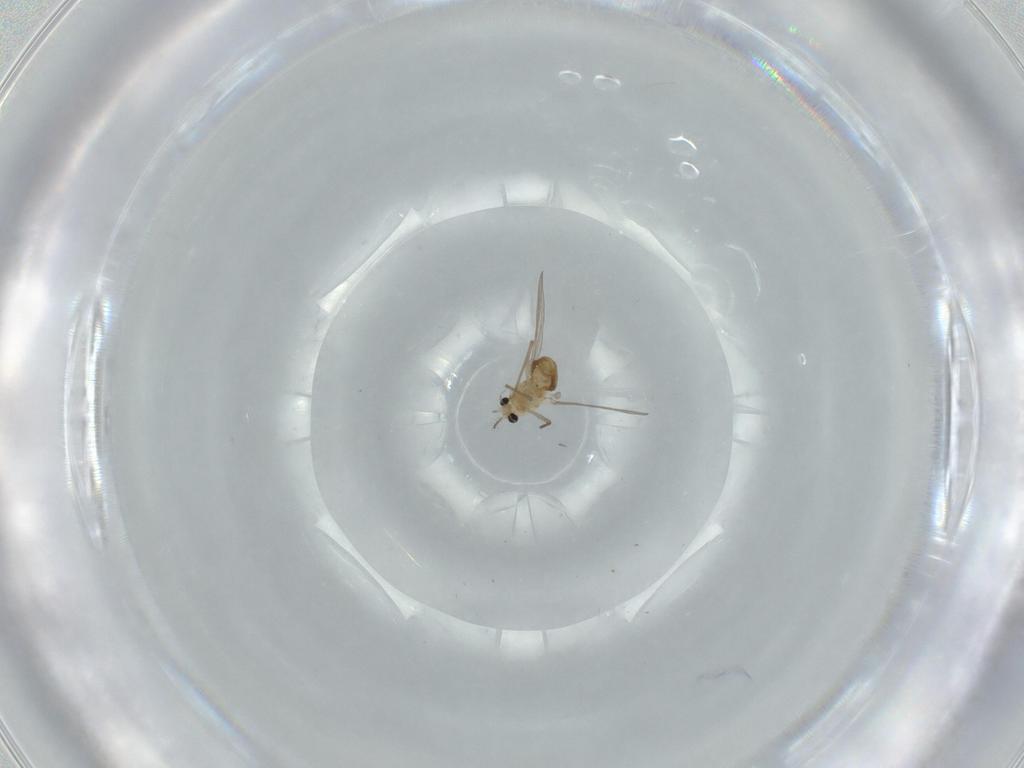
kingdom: Animalia
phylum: Arthropoda
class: Insecta
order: Diptera
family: Chironomidae
